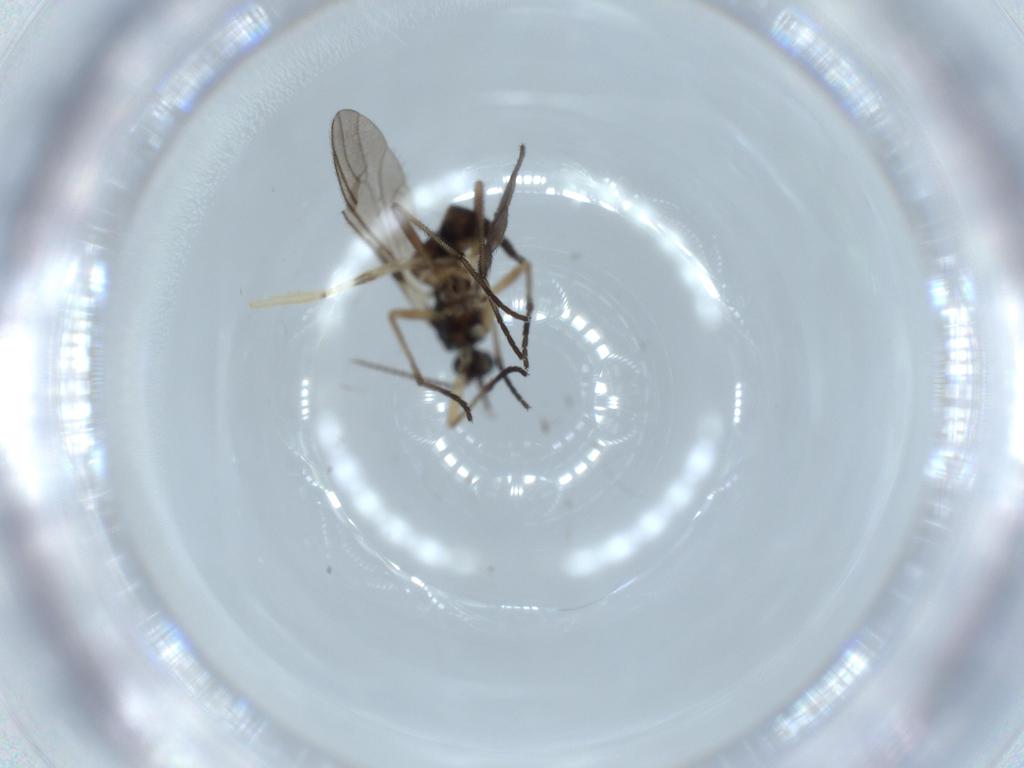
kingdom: Animalia
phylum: Arthropoda
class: Insecta
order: Diptera
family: Sciaridae
